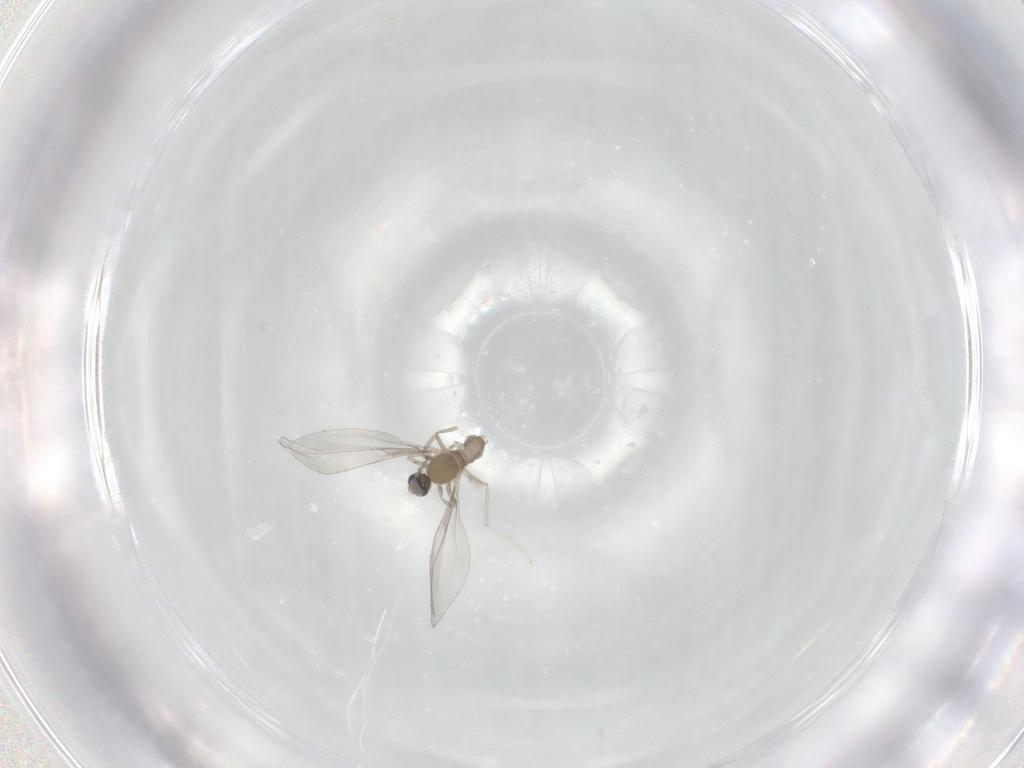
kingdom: Animalia
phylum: Arthropoda
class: Insecta
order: Diptera
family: Cecidomyiidae
